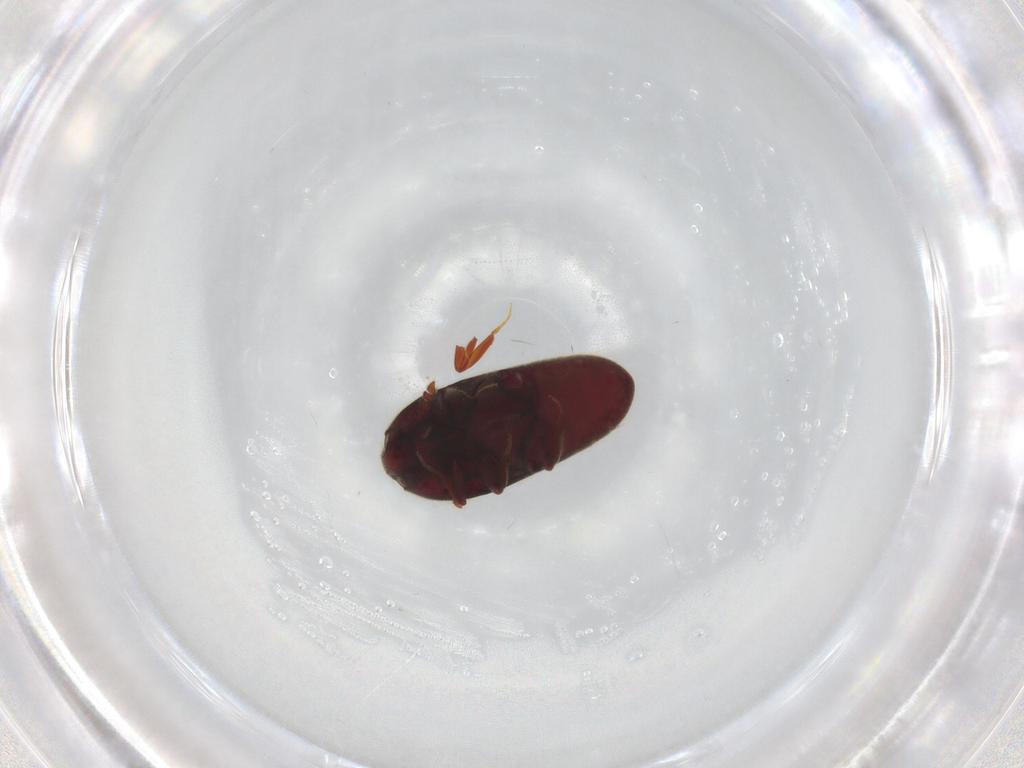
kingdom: Animalia
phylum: Arthropoda
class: Insecta
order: Coleoptera
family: Throscidae
